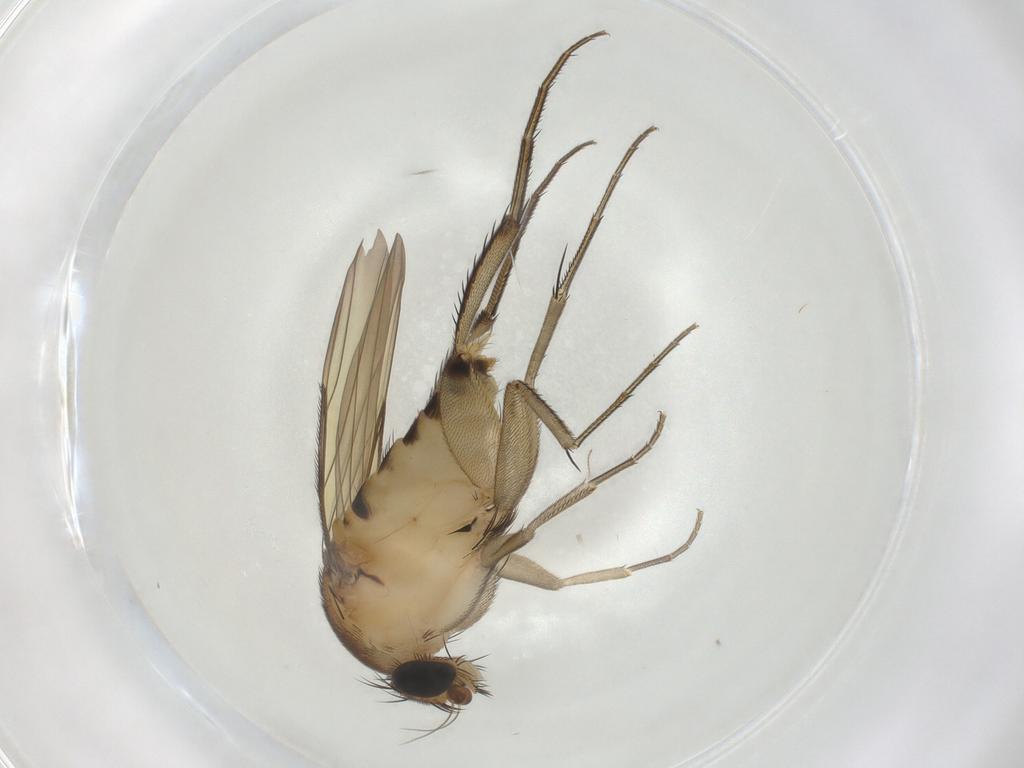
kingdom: Animalia
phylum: Arthropoda
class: Insecta
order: Diptera
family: Phoridae
